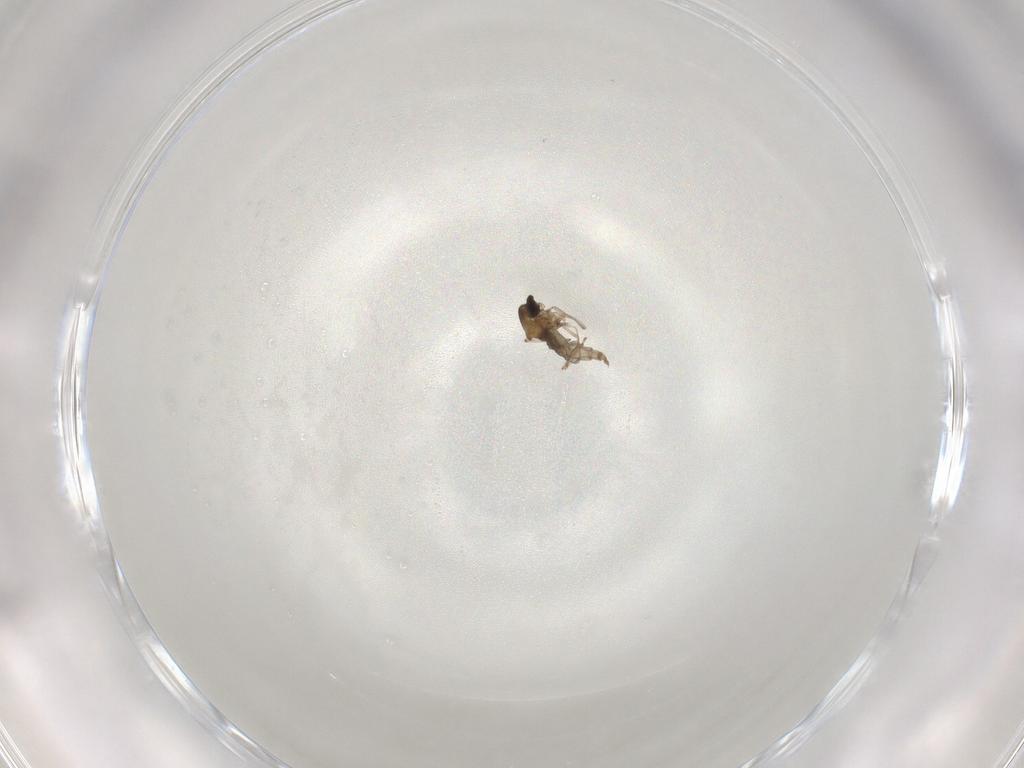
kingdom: Animalia
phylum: Arthropoda
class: Insecta
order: Diptera
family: Cecidomyiidae
